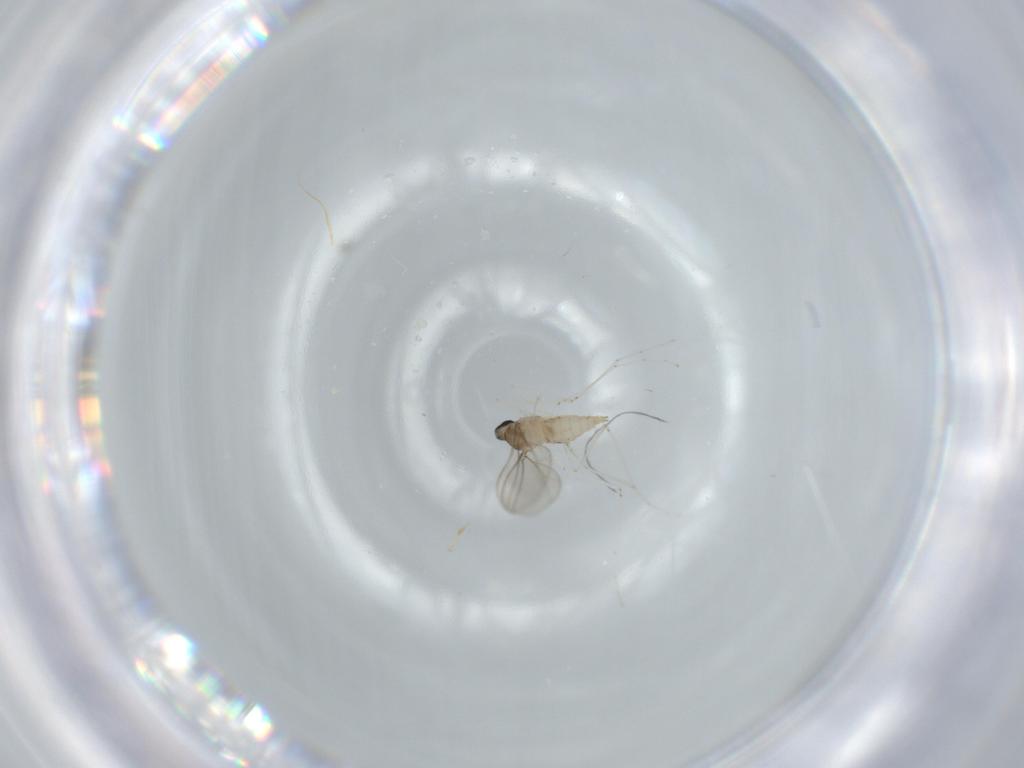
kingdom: Animalia
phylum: Arthropoda
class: Insecta
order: Diptera
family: Cecidomyiidae
